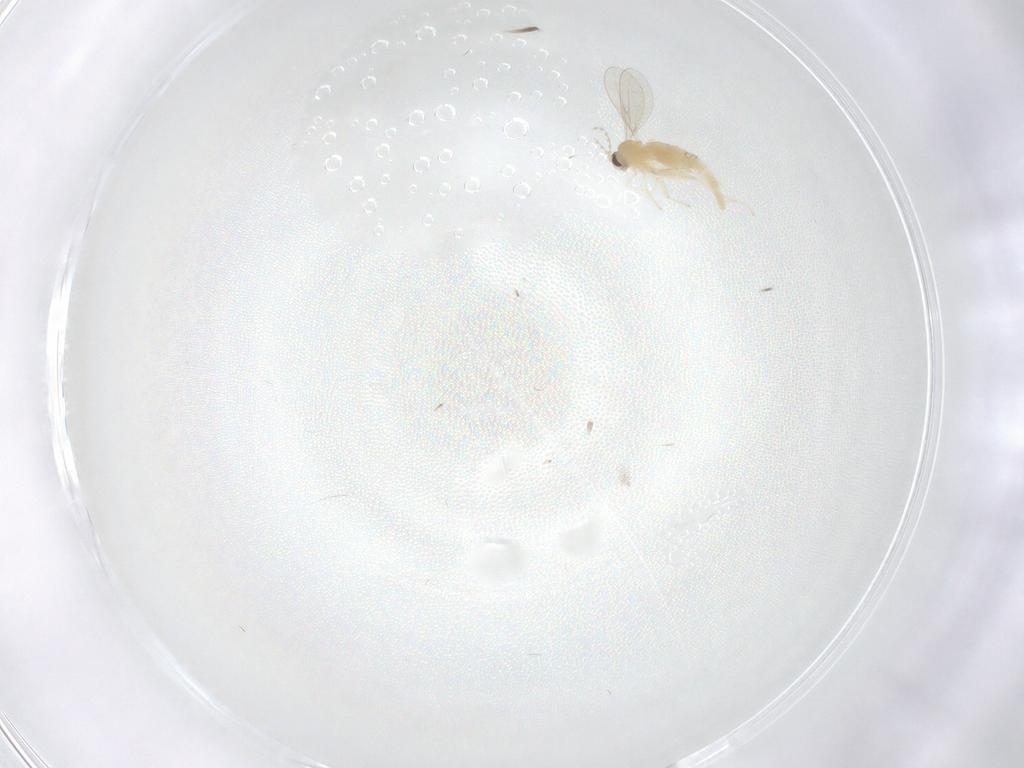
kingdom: Animalia
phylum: Arthropoda
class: Insecta
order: Diptera
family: Cecidomyiidae
